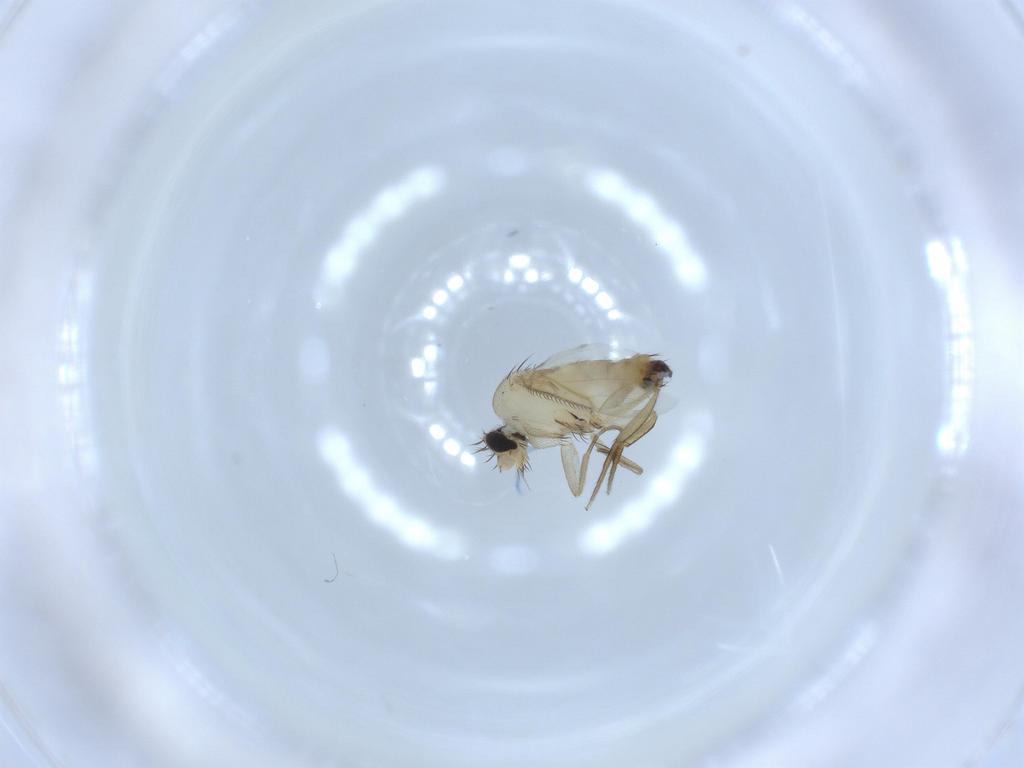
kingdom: Animalia
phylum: Arthropoda
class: Insecta
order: Diptera
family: Phoridae
